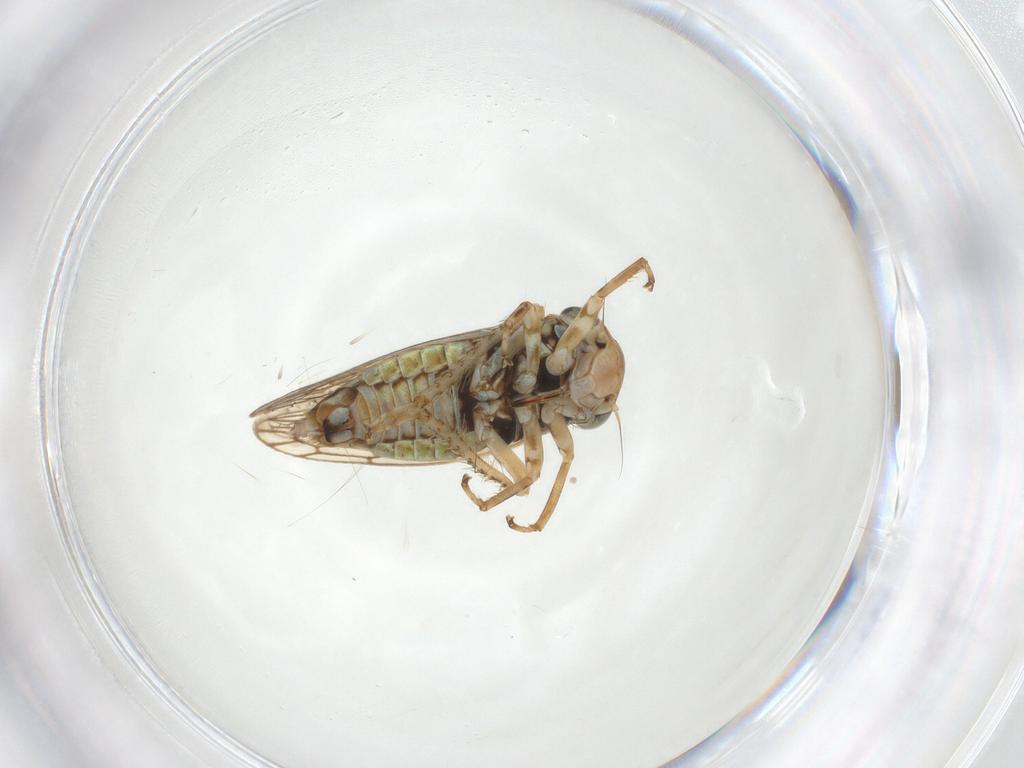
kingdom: Animalia
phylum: Arthropoda
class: Insecta
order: Hemiptera
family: Cicadellidae
